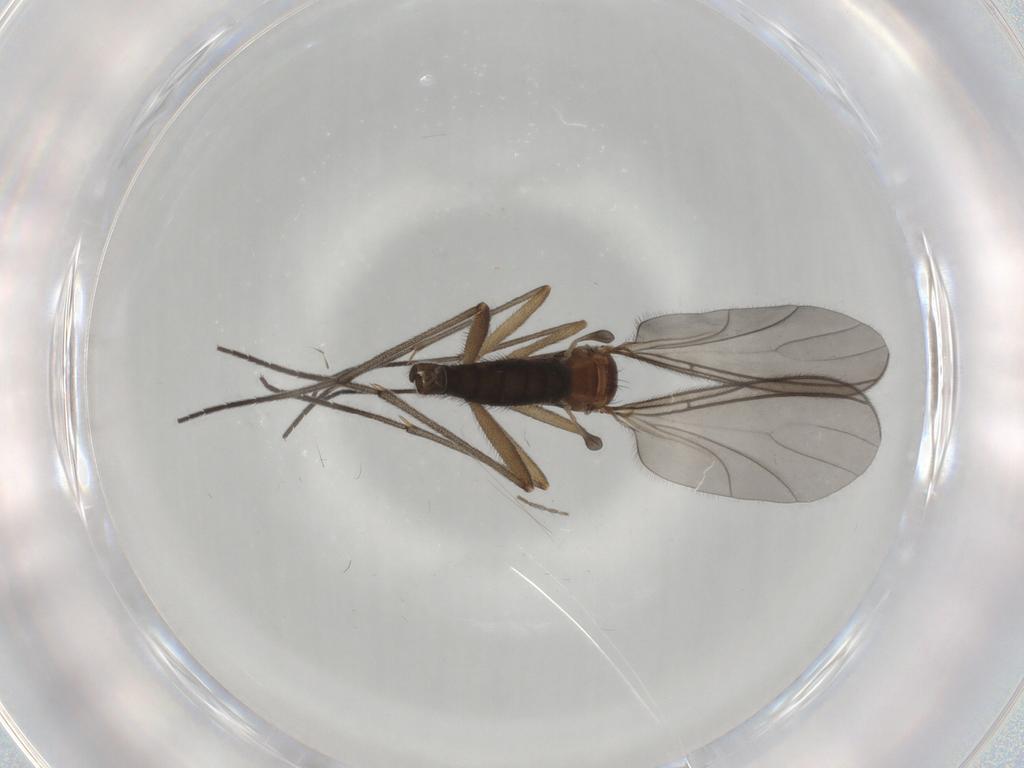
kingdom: Animalia
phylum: Arthropoda
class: Insecta
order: Diptera
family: Sciaridae
